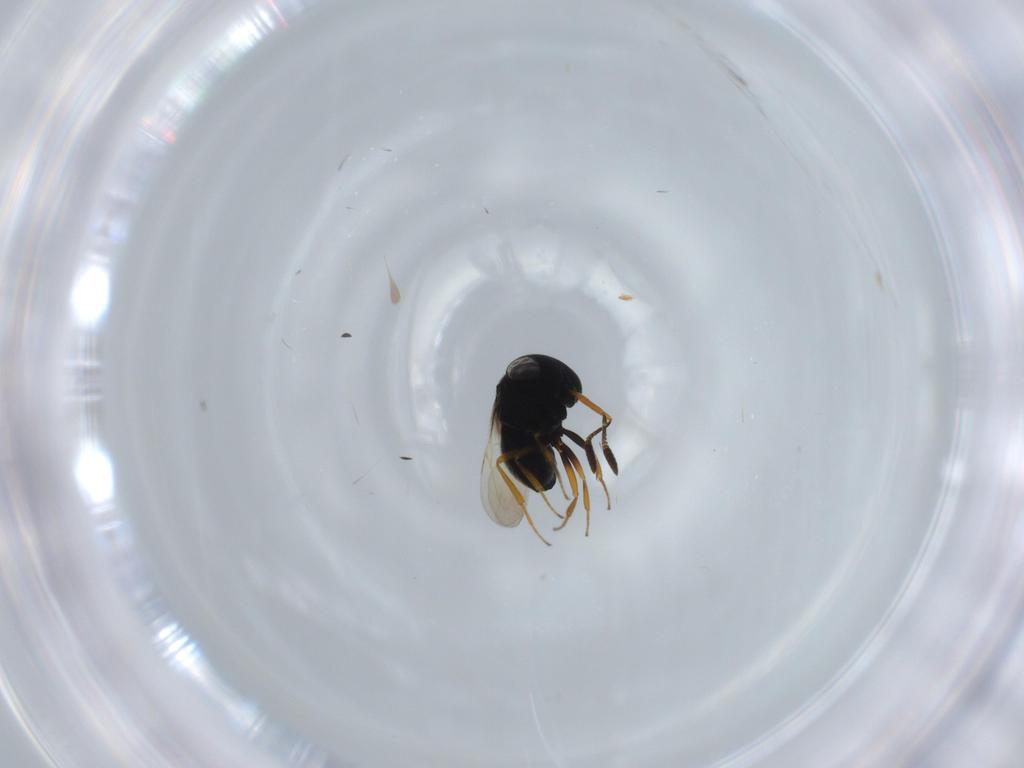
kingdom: Animalia
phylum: Arthropoda
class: Insecta
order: Hymenoptera
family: Scelionidae
